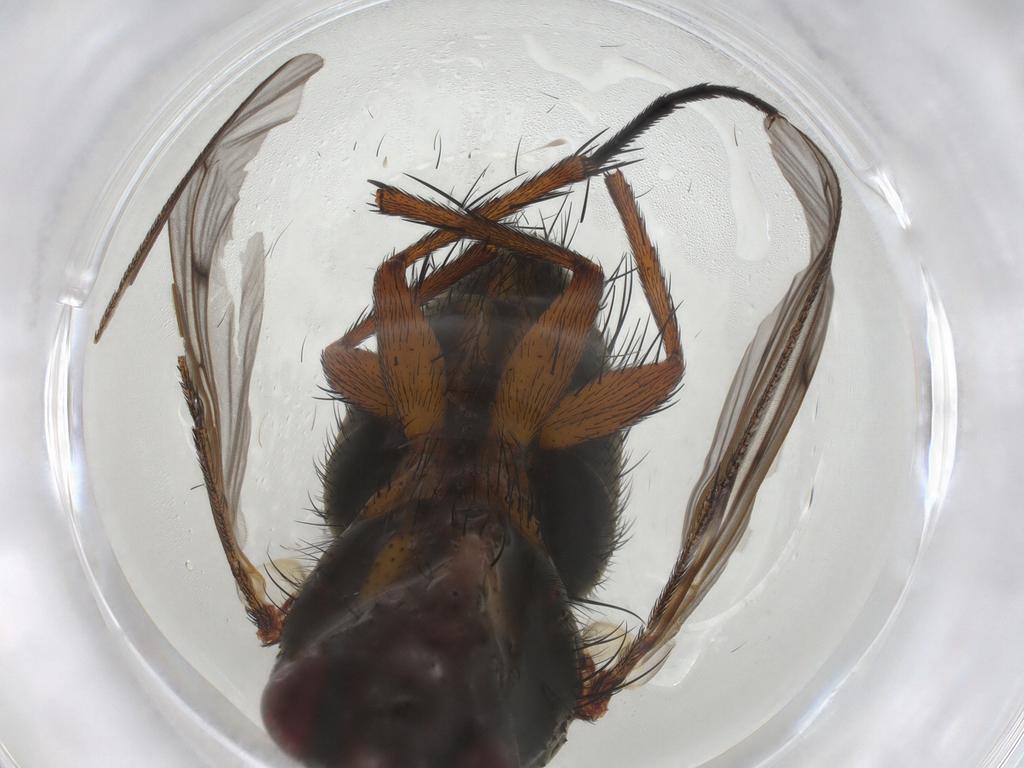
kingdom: Animalia
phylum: Arthropoda
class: Insecta
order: Diptera
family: Muscidae
